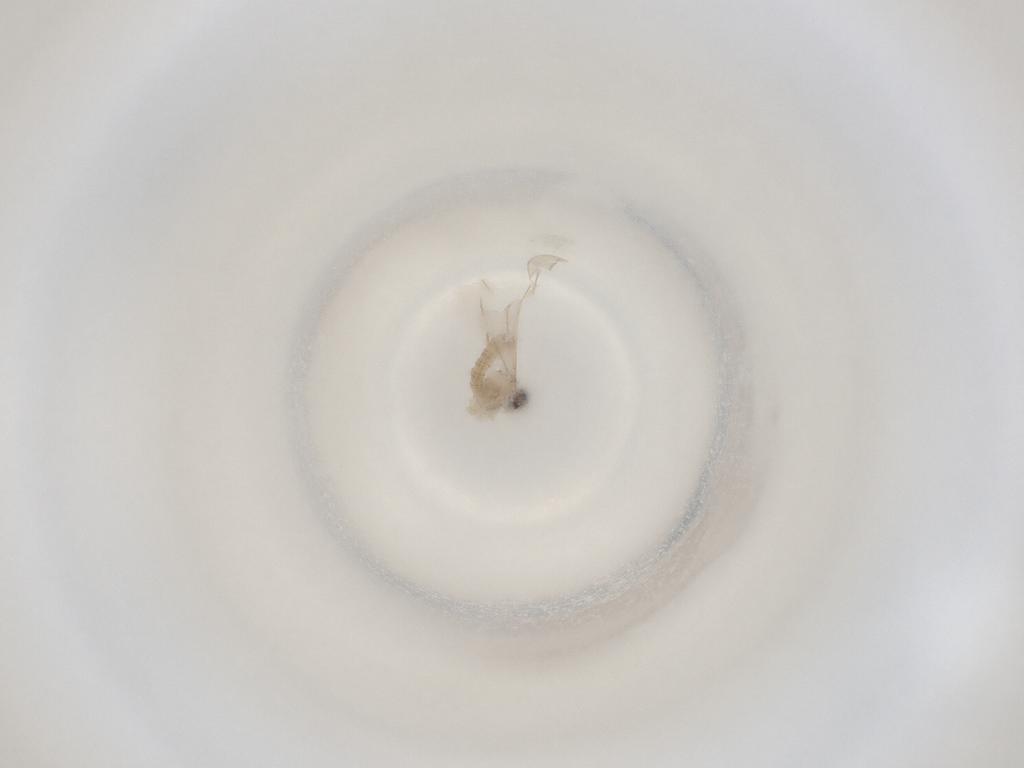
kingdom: Animalia
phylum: Arthropoda
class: Insecta
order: Diptera
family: Cecidomyiidae
